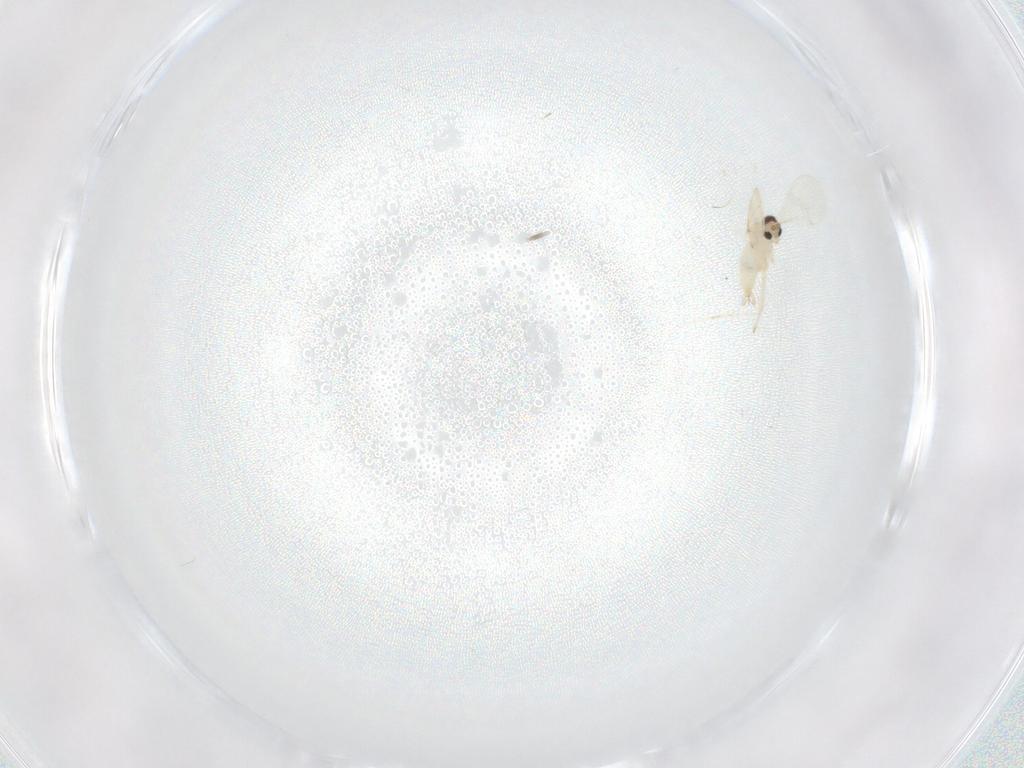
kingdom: Animalia
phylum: Arthropoda
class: Insecta
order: Diptera
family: Cecidomyiidae
